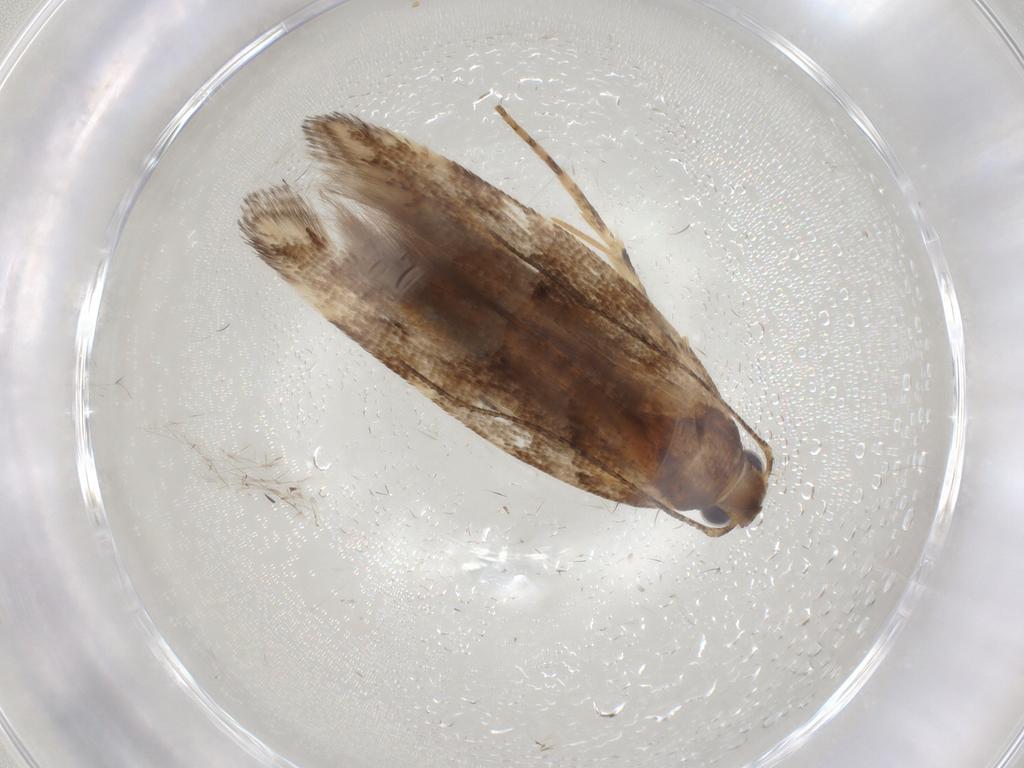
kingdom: Animalia
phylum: Arthropoda
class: Insecta
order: Lepidoptera
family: Gelechiidae
